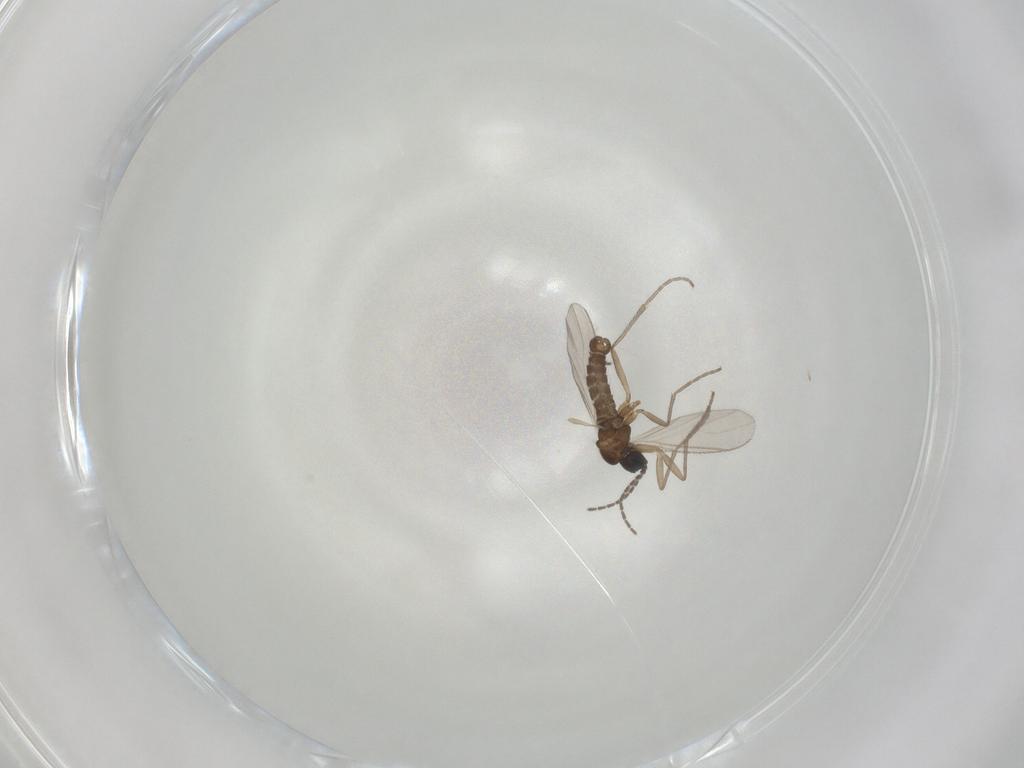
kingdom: Animalia
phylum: Arthropoda
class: Insecta
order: Diptera
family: Sciaridae
